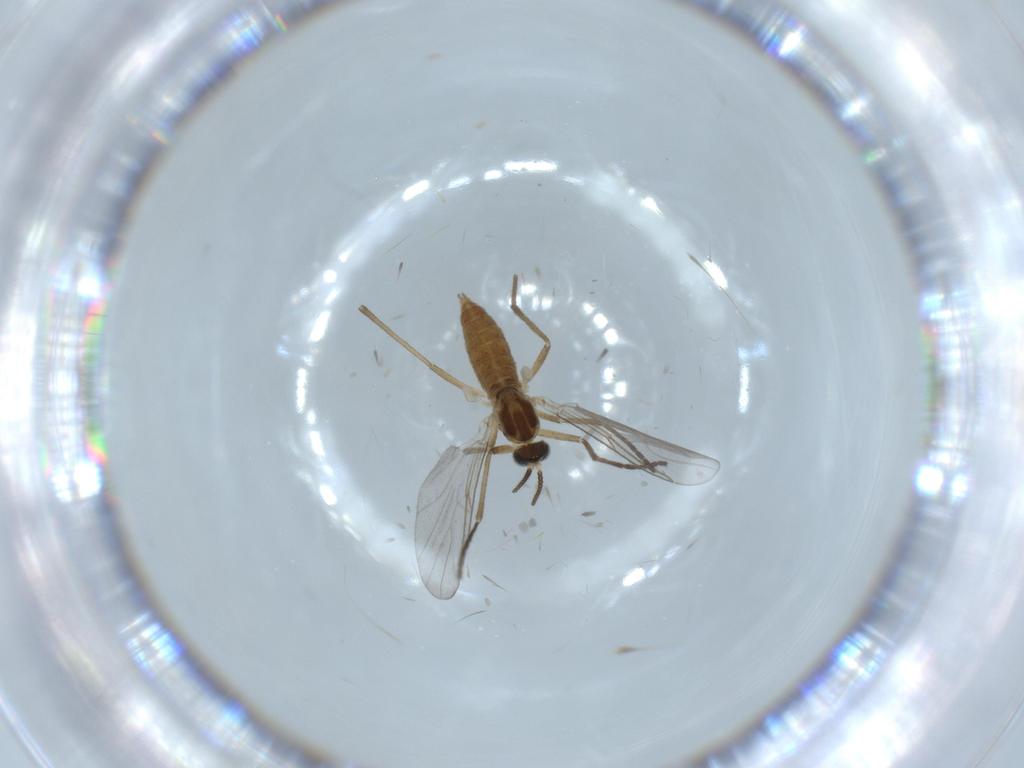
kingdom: Animalia
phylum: Arthropoda
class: Insecta
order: Diptera
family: Cecidomyiidae
